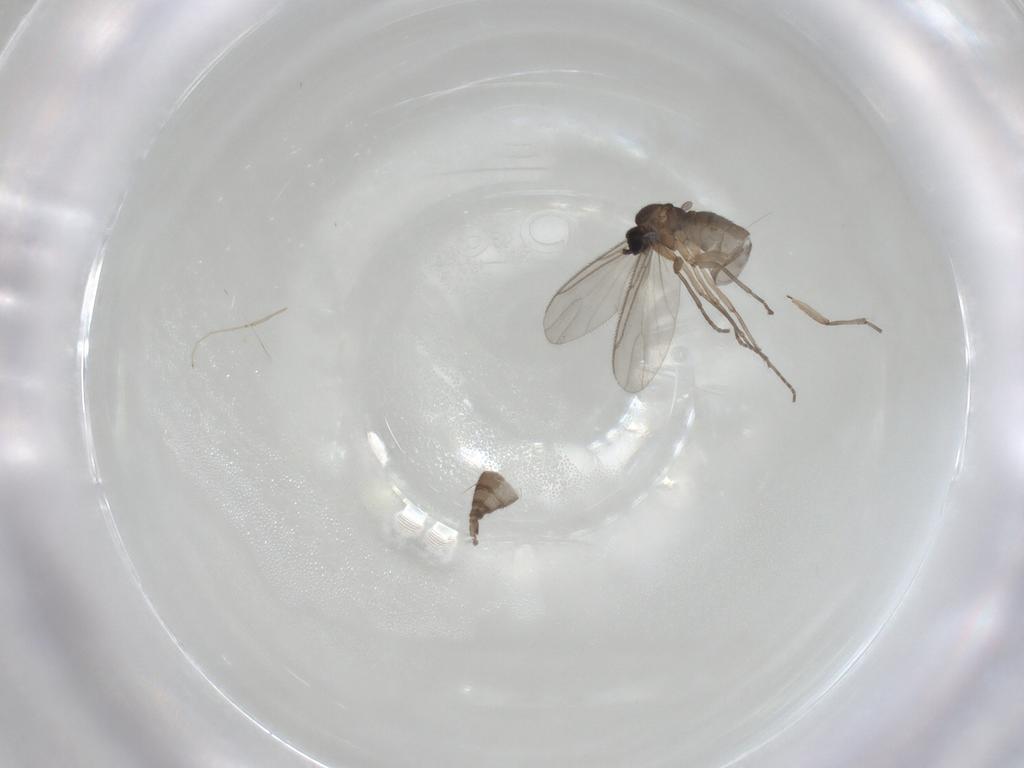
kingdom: Animalia
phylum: Arthropoda
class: Insecta
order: Diptera
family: Sciaridae
